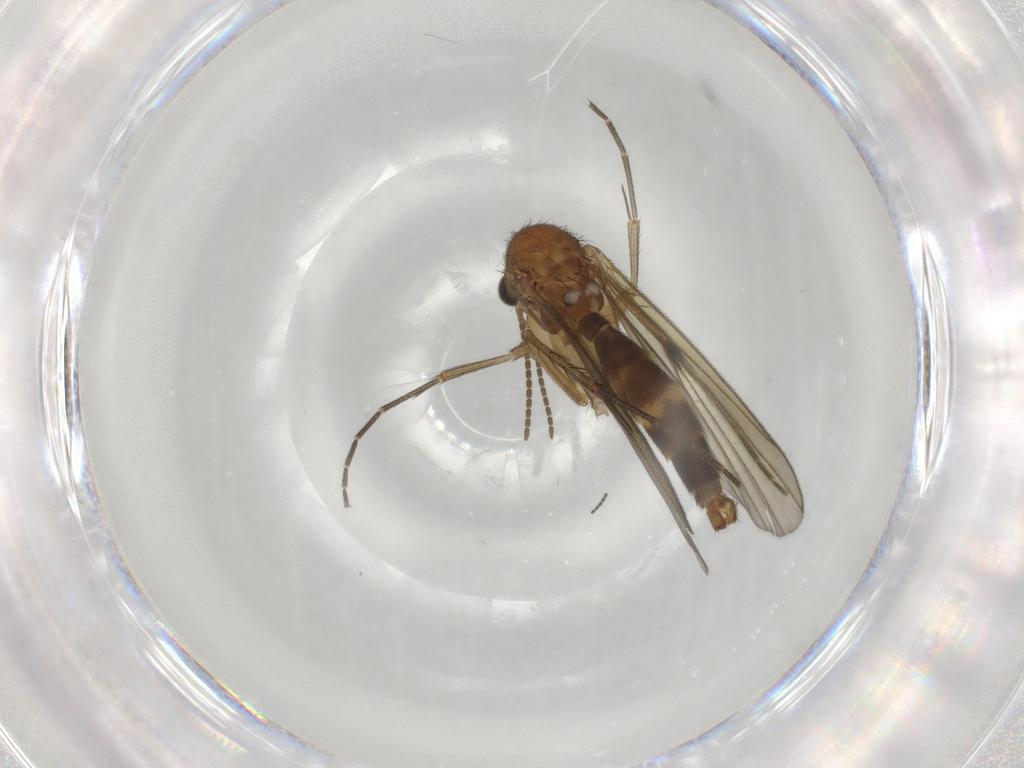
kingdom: Animalia
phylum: Arthropoda
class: Insecta
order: Diptera
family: Mycetophilidae
